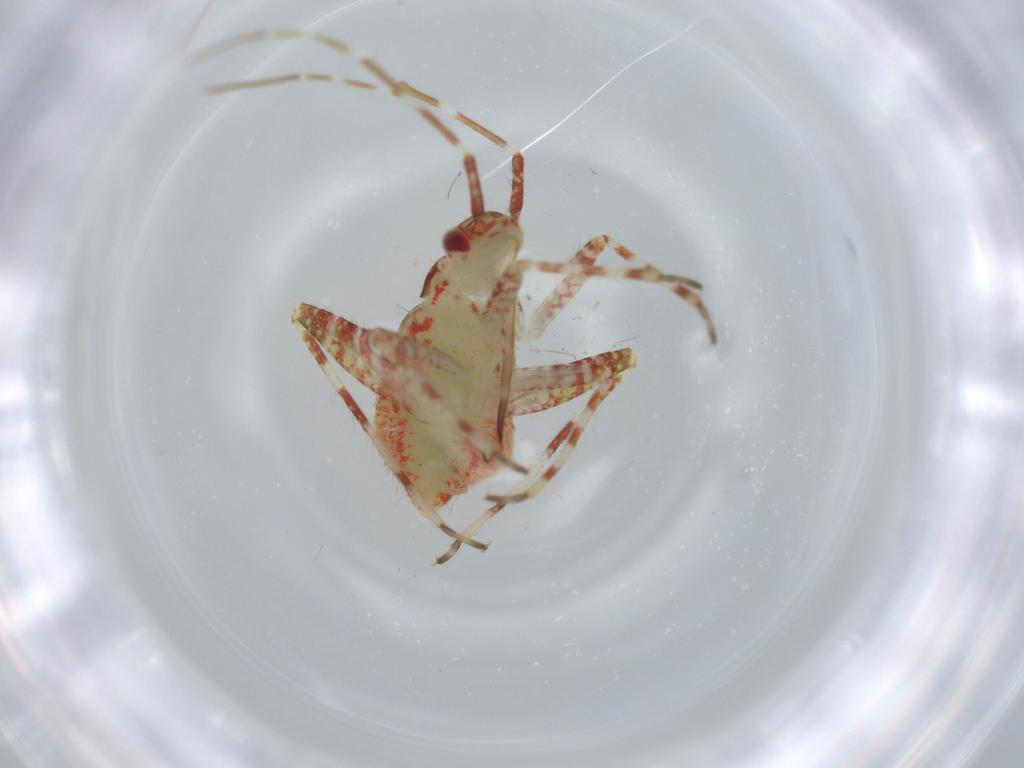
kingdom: Animalia
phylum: Arthropoda
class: Insecta
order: Hemiptera
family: Miridae
